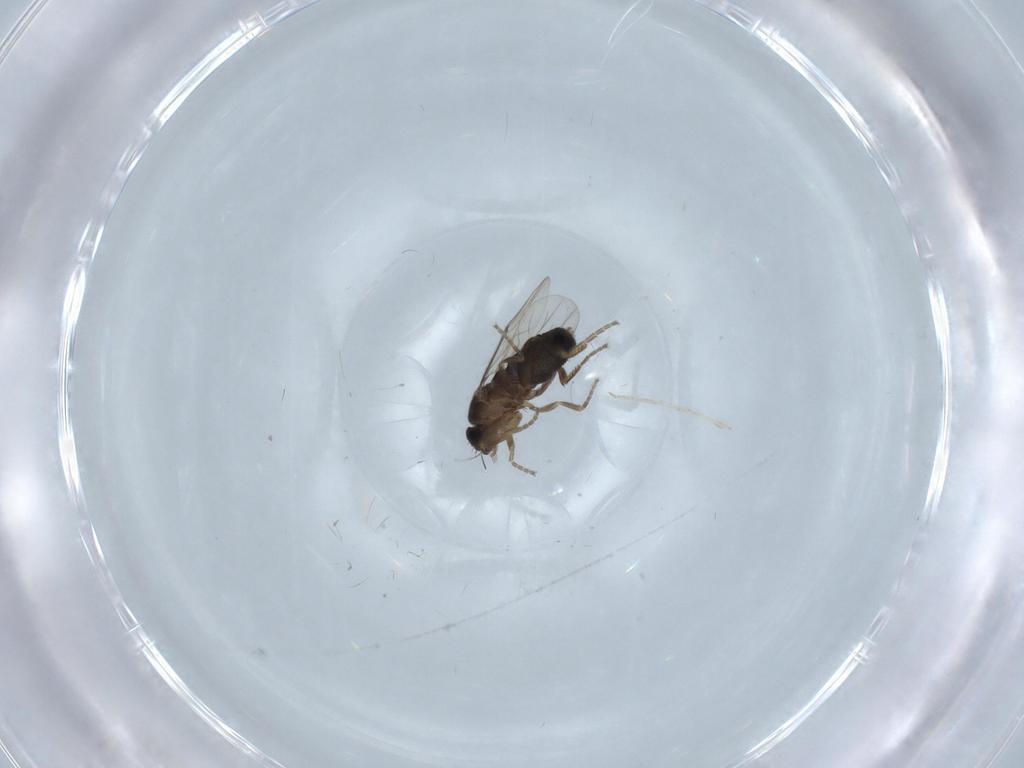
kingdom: Animalia
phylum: Arthropoda
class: Insecta
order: Diptera
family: Phoridae
